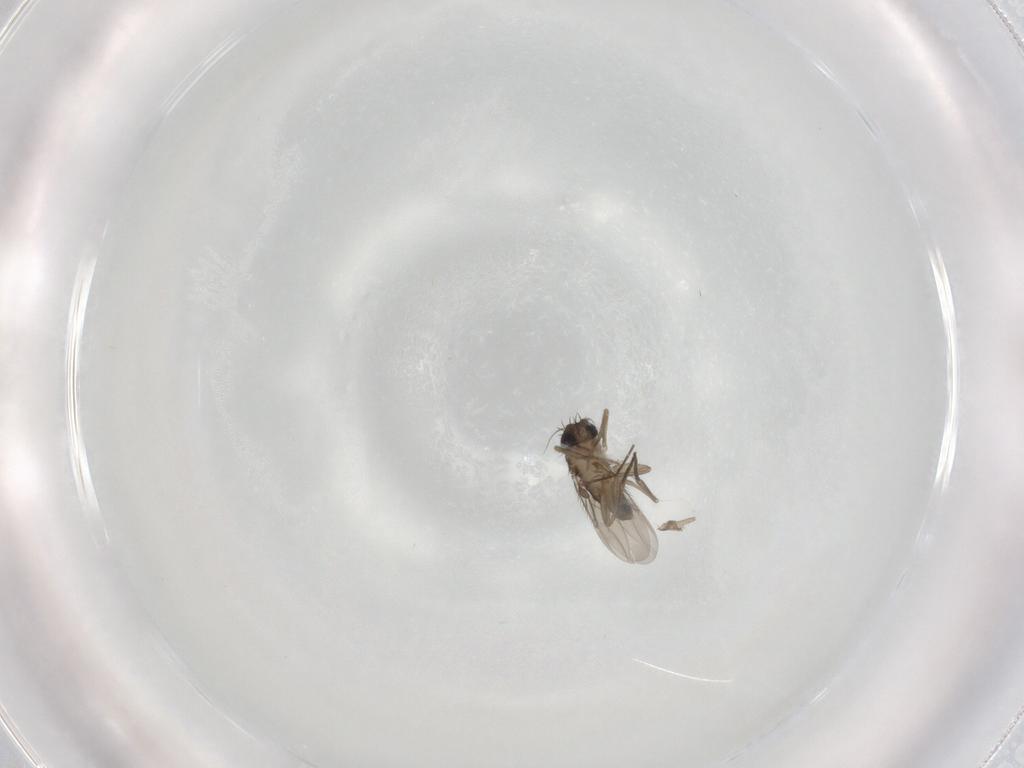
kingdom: Animalia
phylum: Arthropoda
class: Insecta
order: Diptera
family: Phoridae
